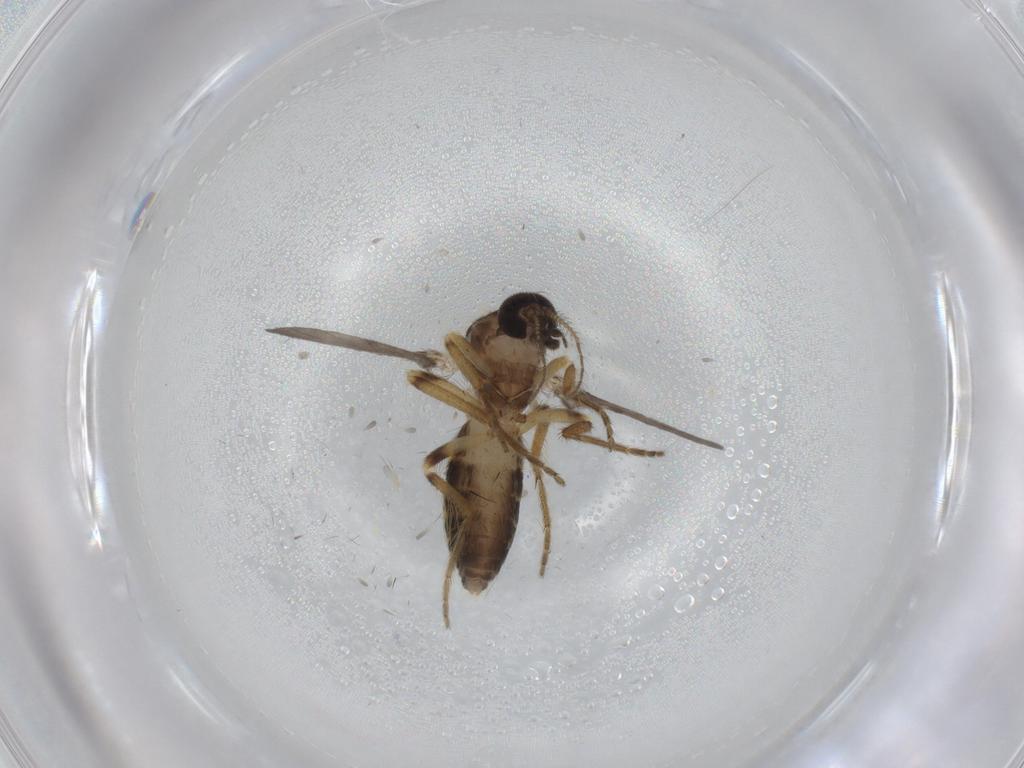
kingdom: Animalia
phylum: Arthropoda
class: Insecta
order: Diptera
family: Ceratopogonidae
